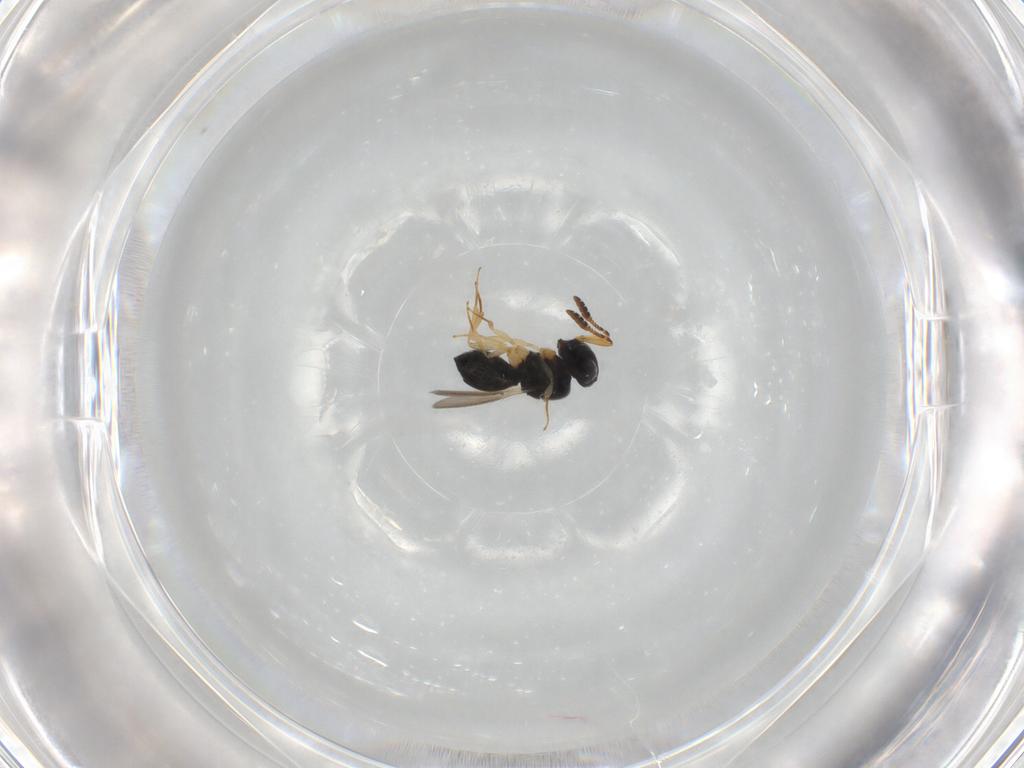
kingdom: Animalia
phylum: Arthropoda
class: Insecta
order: Hymenoptera
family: Scelionidae
